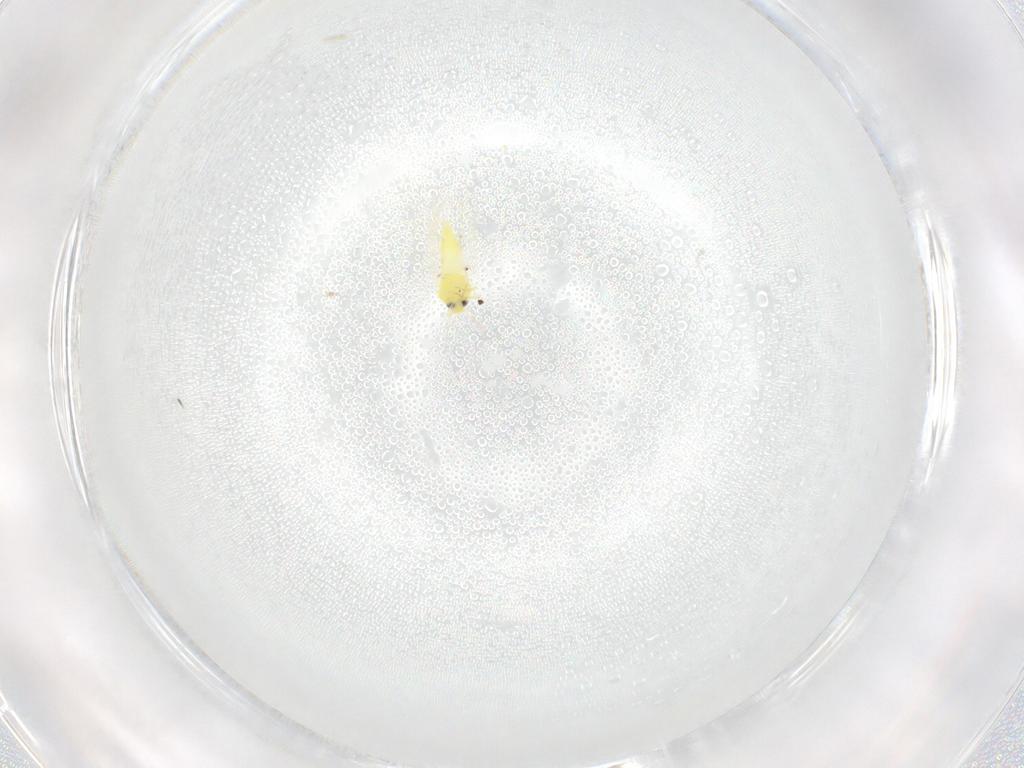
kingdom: Animalia
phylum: Arthropoda
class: Insecta
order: Hemiptera
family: Aleyrodidae
